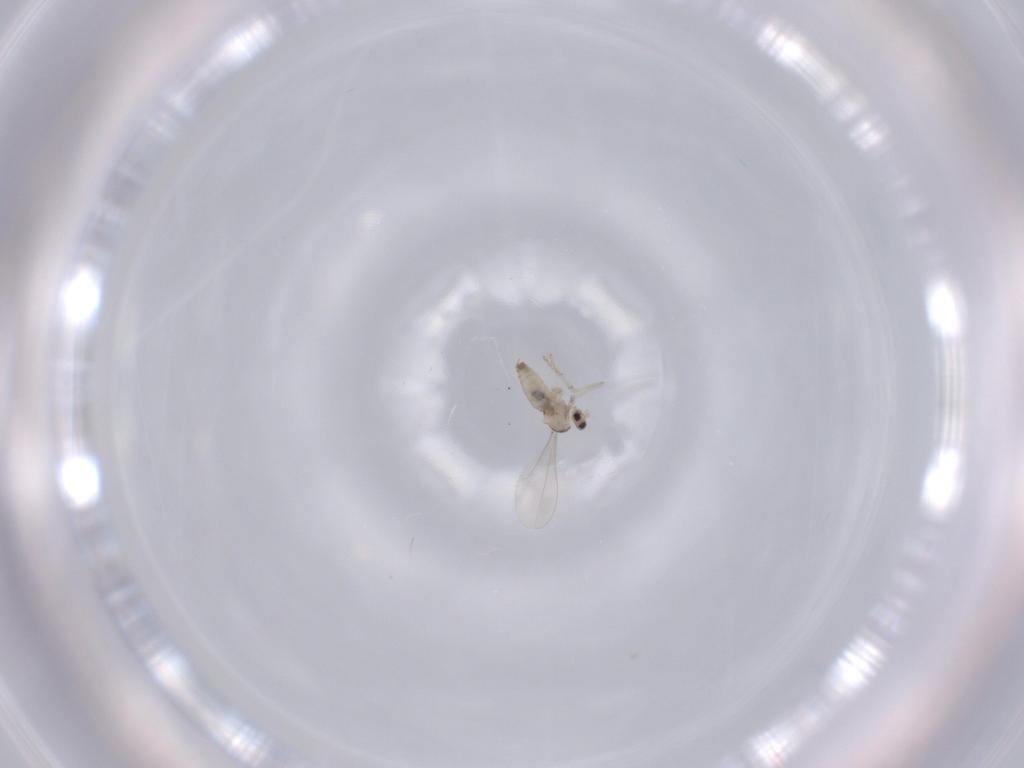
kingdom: Animalia
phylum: Arthropoda
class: Insecta
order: Diptera
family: Cecidomyiidae
